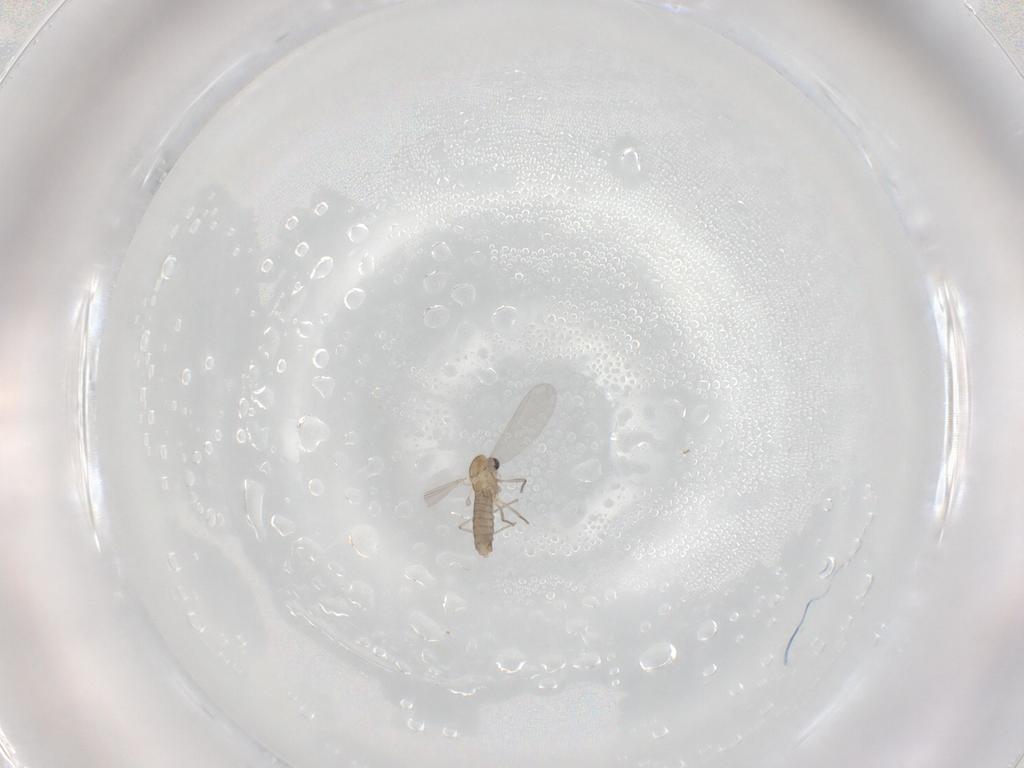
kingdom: Animalia
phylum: Arthropoda
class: Insecta
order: Diptera
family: Chironomidae
